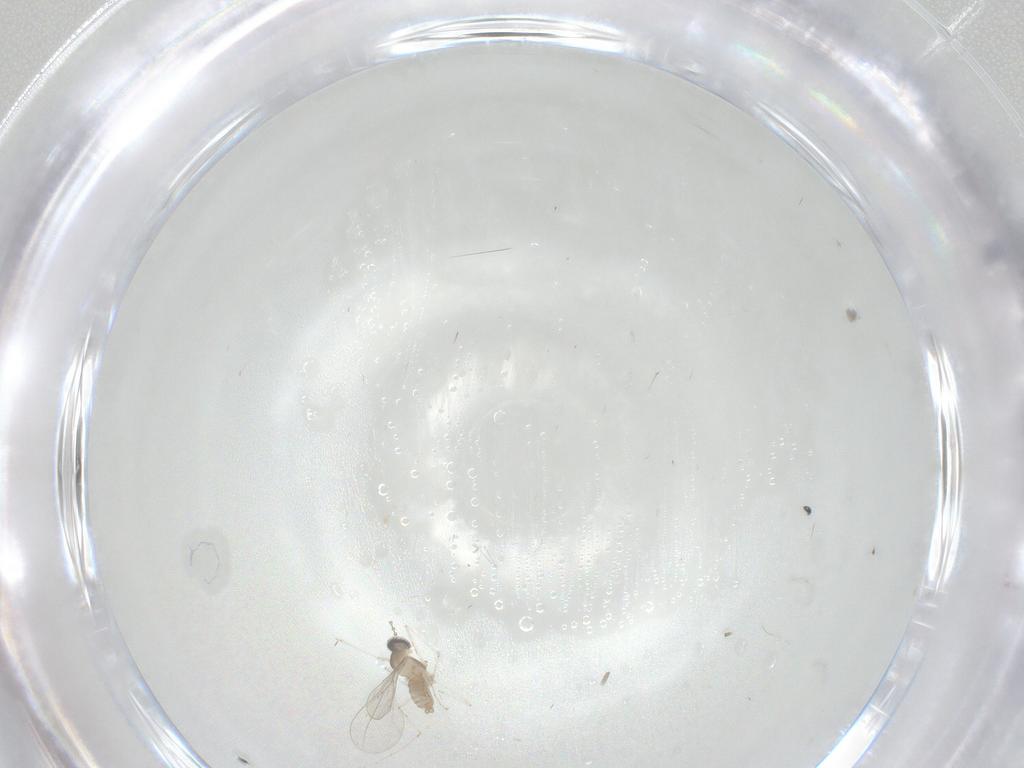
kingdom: Animalia
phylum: Arthropoda
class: Insecta
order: Diptera
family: Cecidomyiidae
